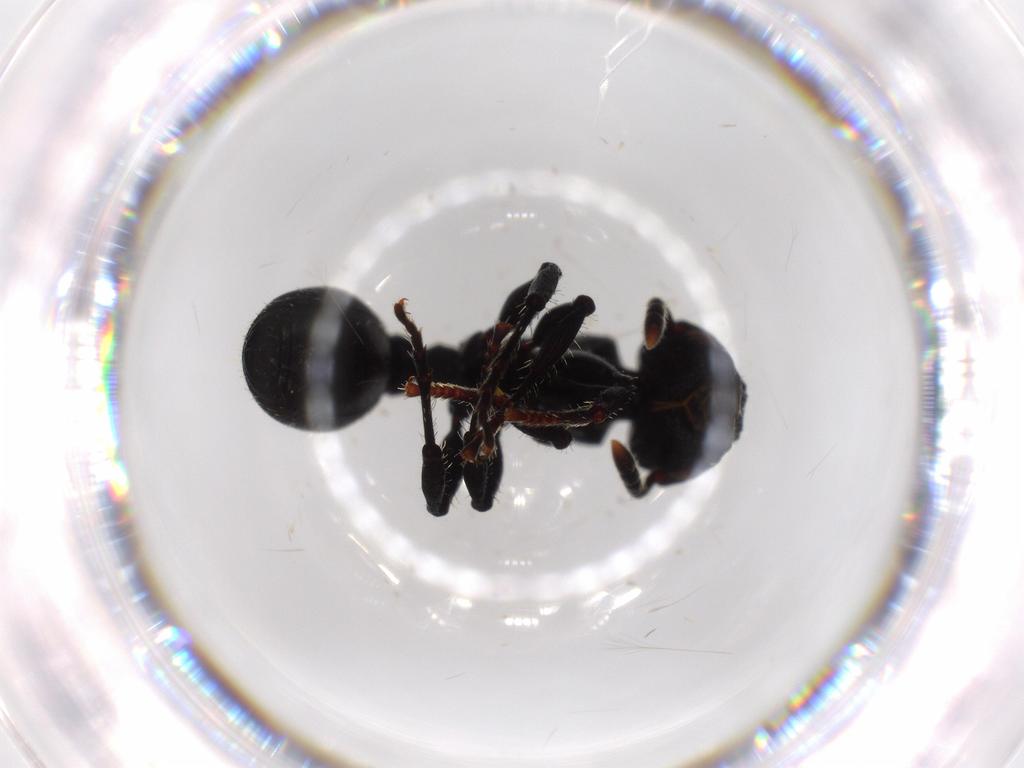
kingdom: Animalia
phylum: Arthropoda
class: Insecta
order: Hymenoptera
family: Formicidae
